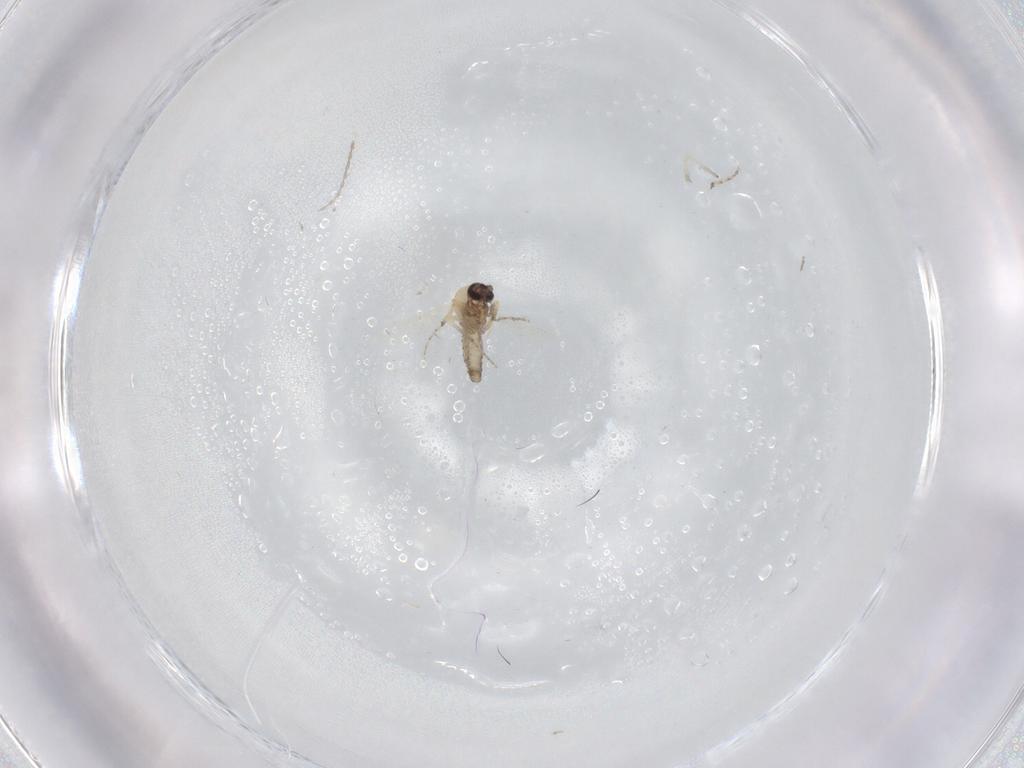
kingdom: Animalia
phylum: Arthropoda
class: Insecta
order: Diptera
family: Ceratopogonidae
